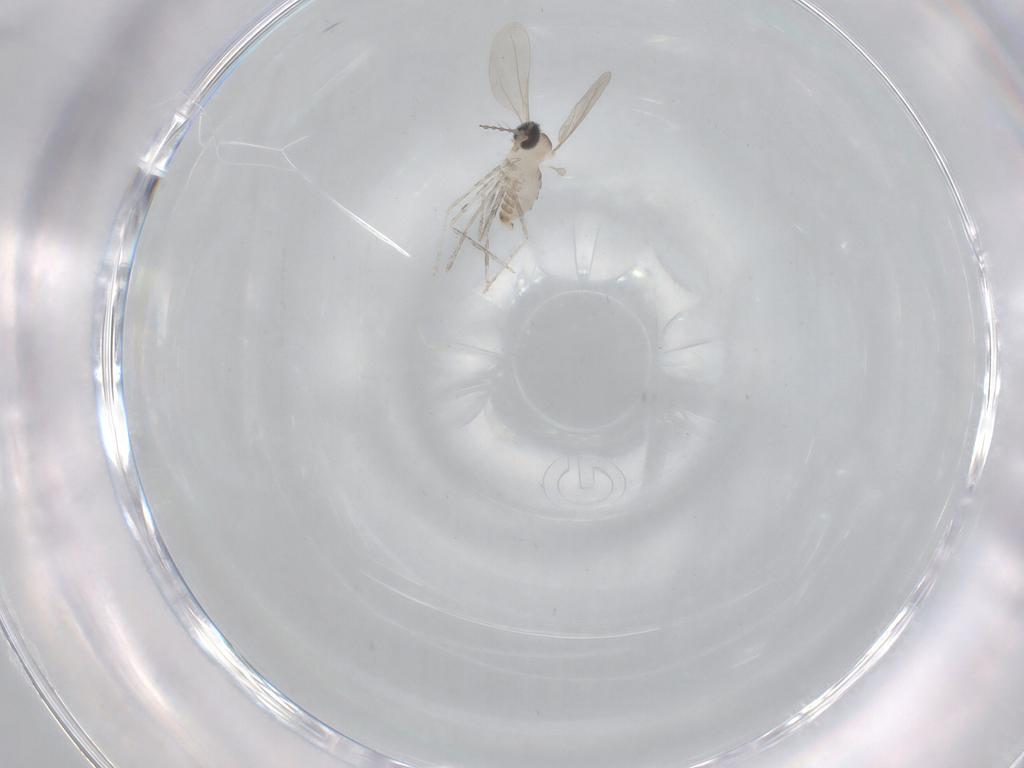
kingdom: Animalia
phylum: Arthropoda
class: Insecta
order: Diptera
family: Cecidomyiidae
